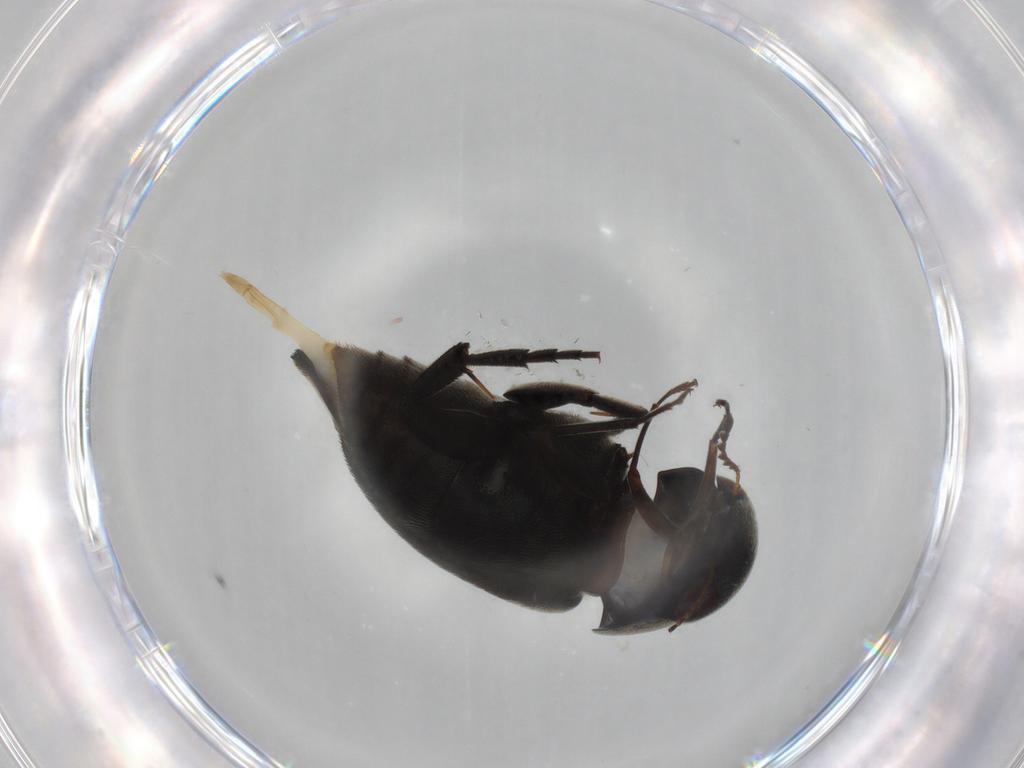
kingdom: Animalia
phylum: Arthropoda
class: Insecta
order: Coleoptera
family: Mordellidae
